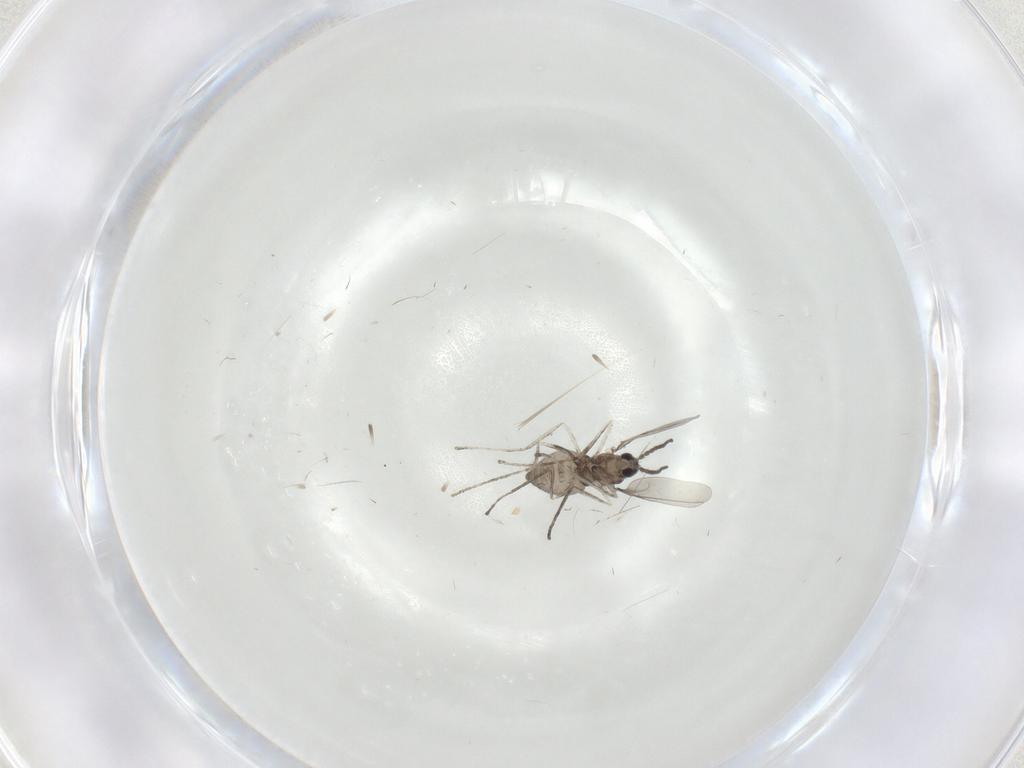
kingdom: Animalia
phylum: Arthropoda
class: Insecta
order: Diptera
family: Cecidomyiidae
